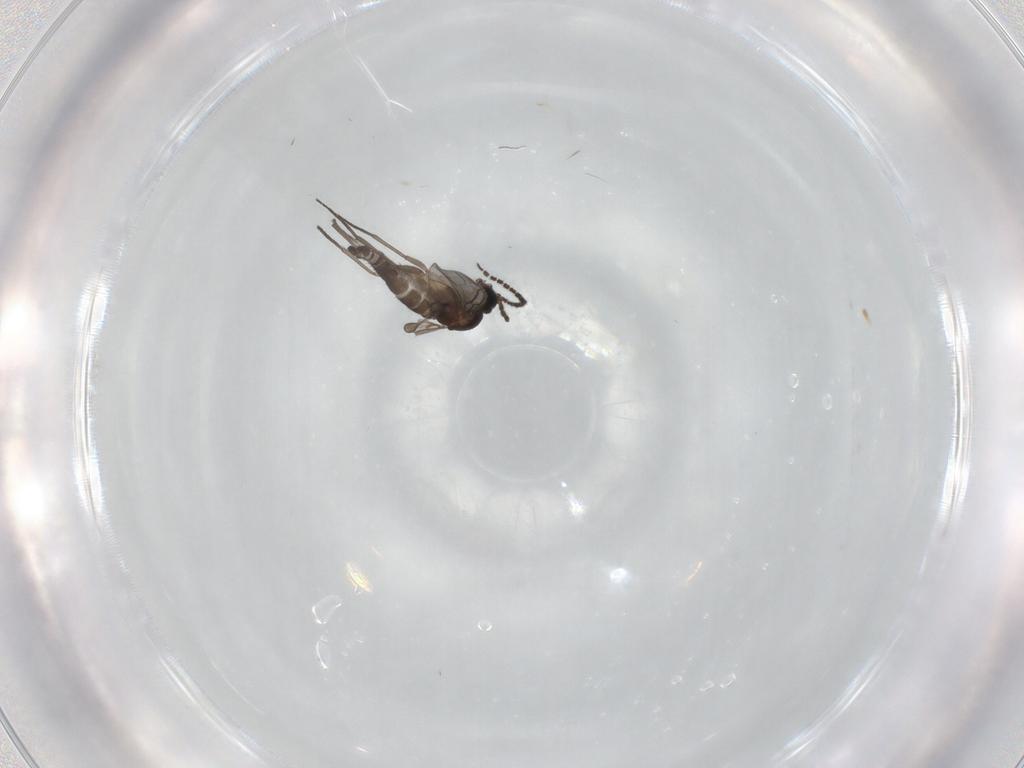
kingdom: Animalia
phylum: Arthropoda
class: Insecta
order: Diptera
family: Sciaridae
